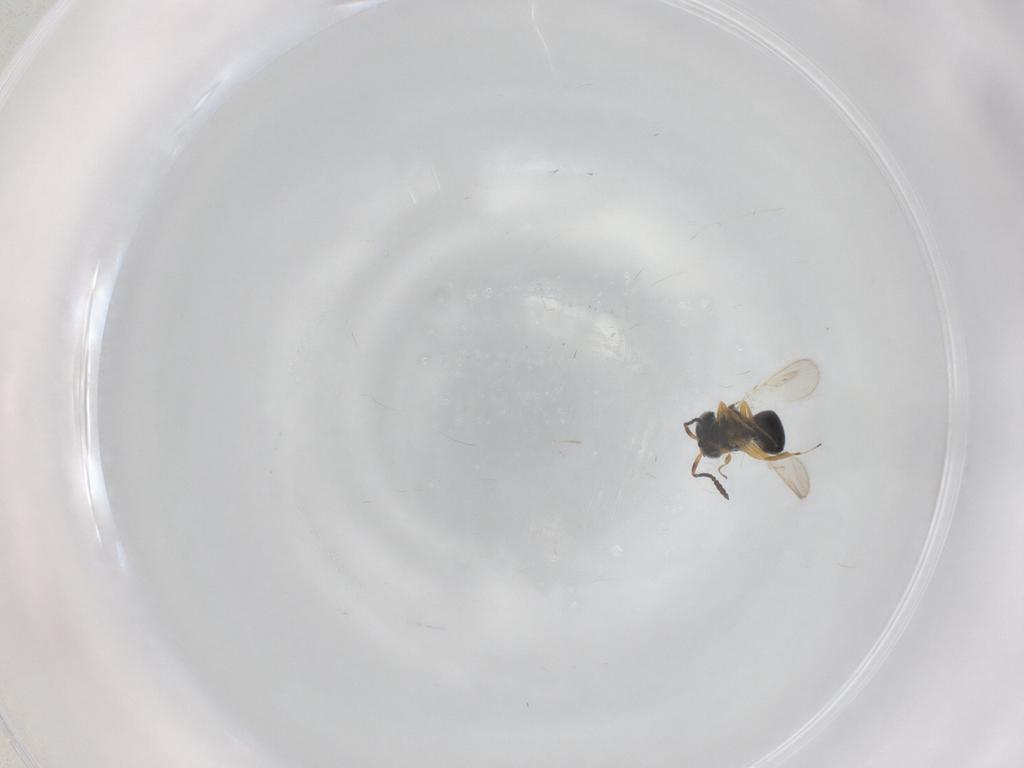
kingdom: Animalia
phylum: Arthropoda
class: Insecta
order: Hymenoptera
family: Scelionidae
